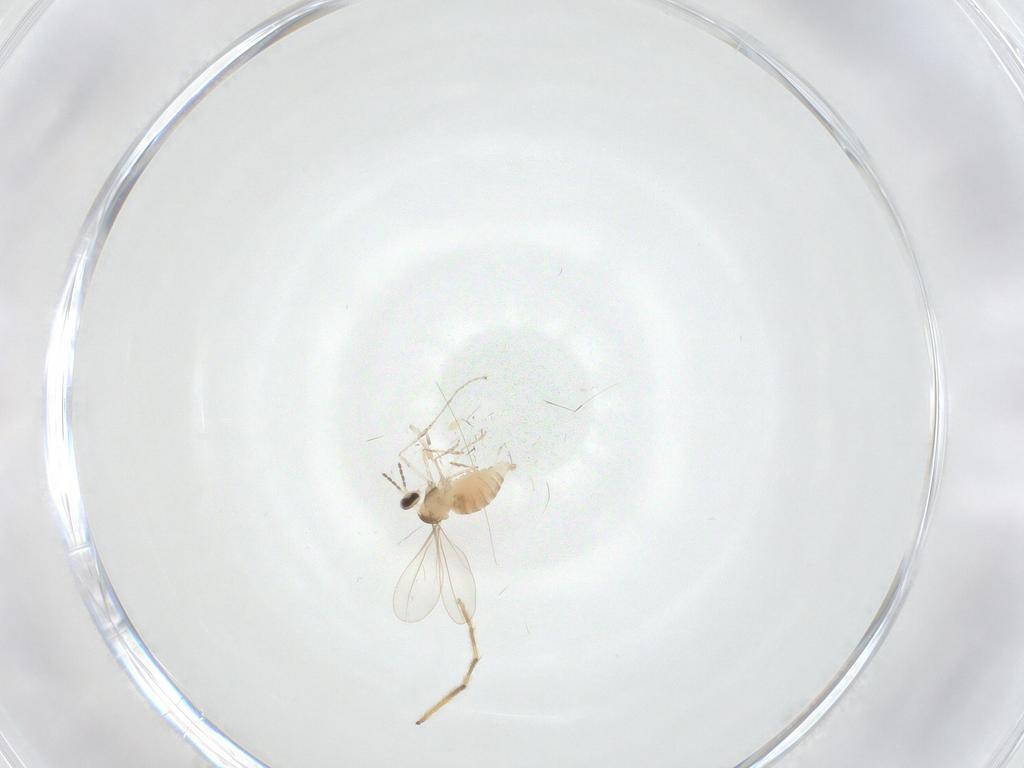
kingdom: Animalia
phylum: Arthropoda
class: Insecta
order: Diptera
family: Cecidomyiidae
